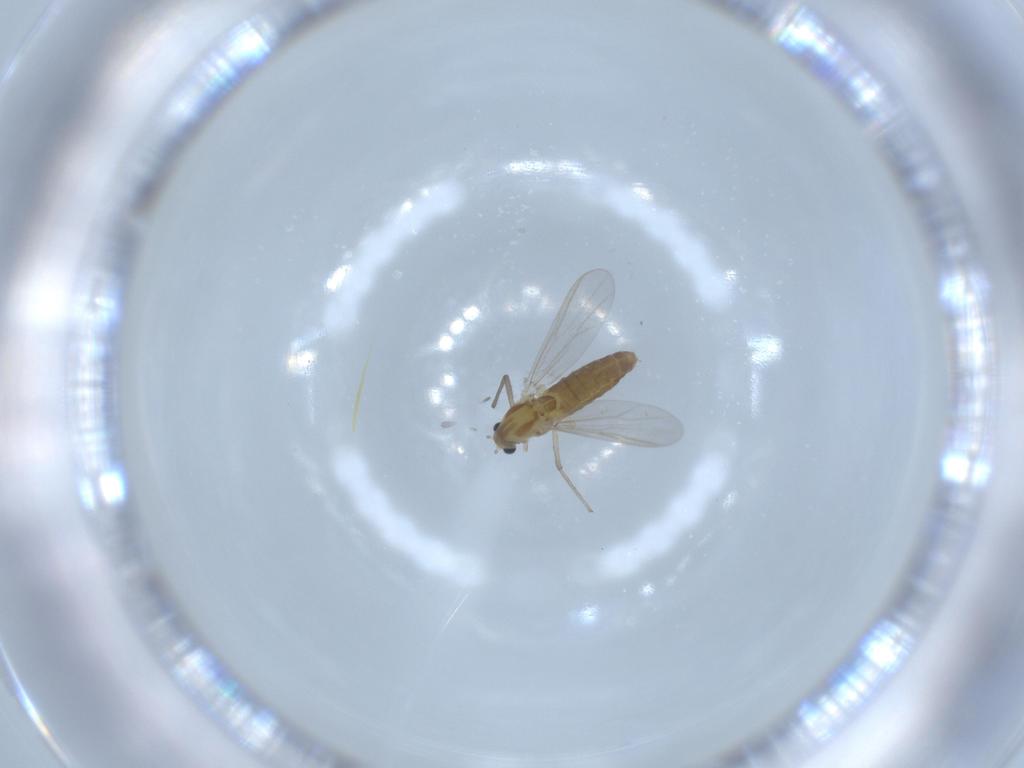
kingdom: Animalia
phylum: Arthropoda
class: Insecta
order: Diptera
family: Chironomidae
